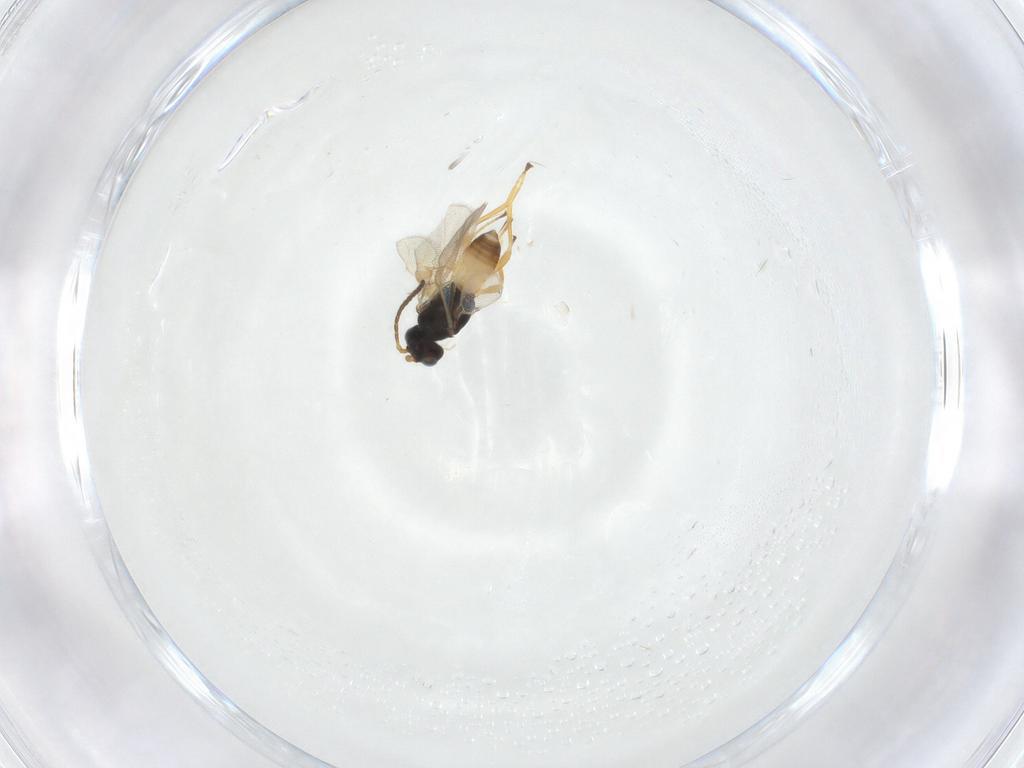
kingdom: Animalia
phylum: Arthropoda
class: Insecta
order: Hymenoptera
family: Braconidae
